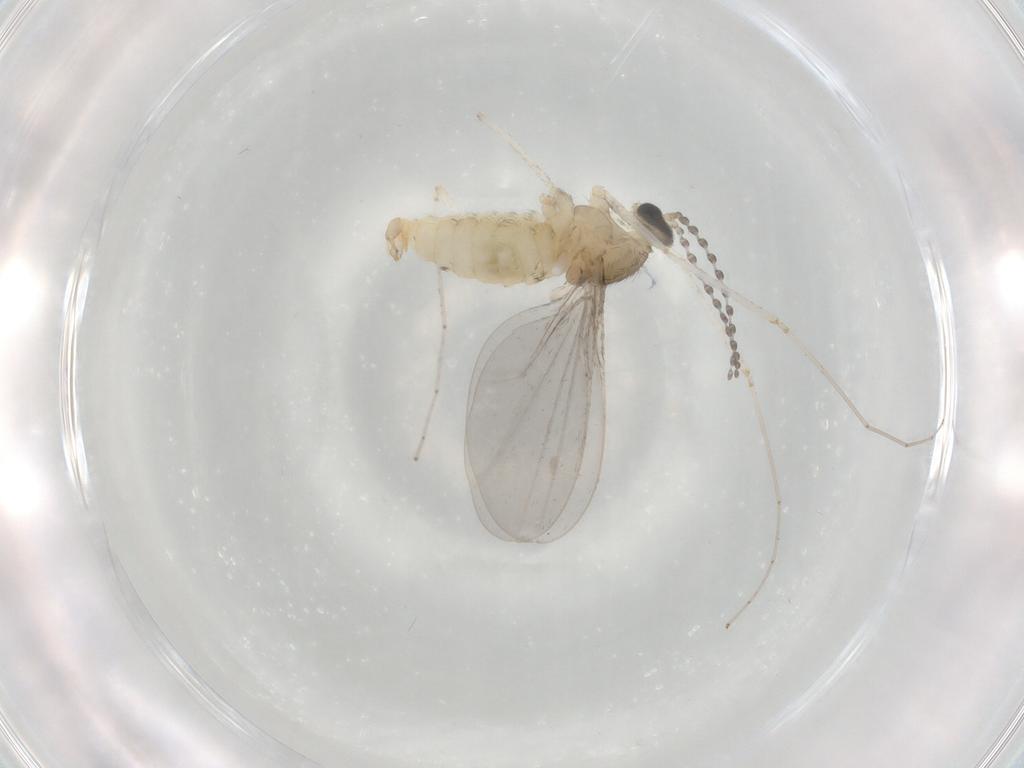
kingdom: Animalia
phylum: Arthropoda
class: Insecta
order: Diptera
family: Cecidomyiidae
